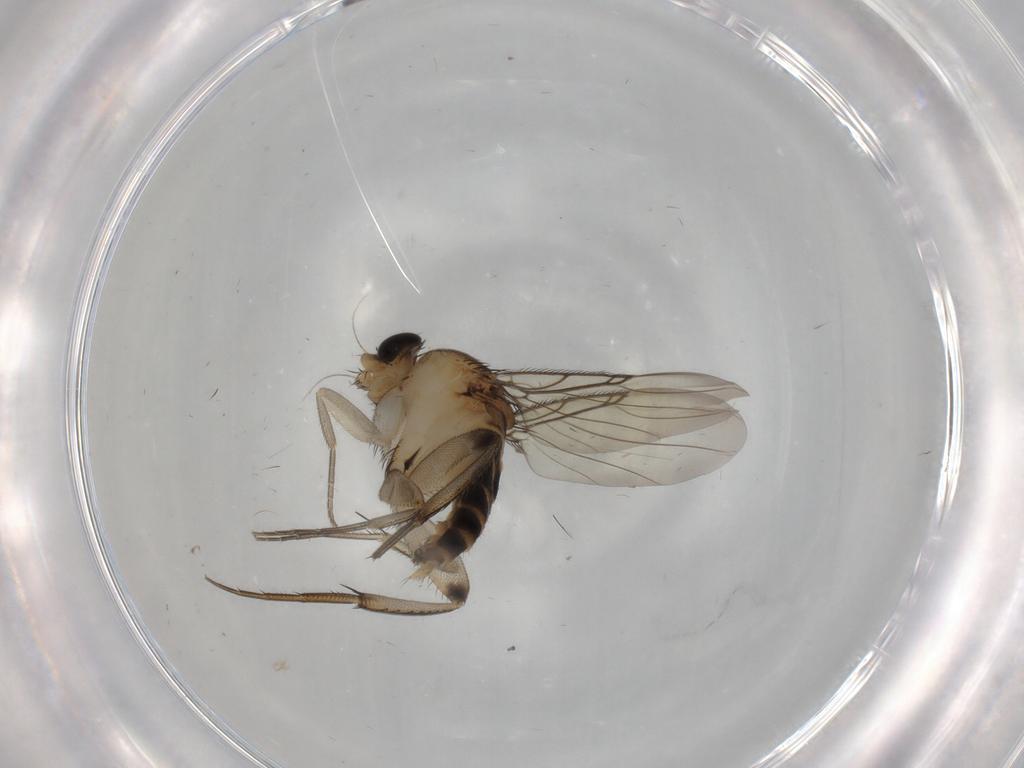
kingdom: Animalia
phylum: Arthropoda
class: Insecta
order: Diptera
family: Phoridae
